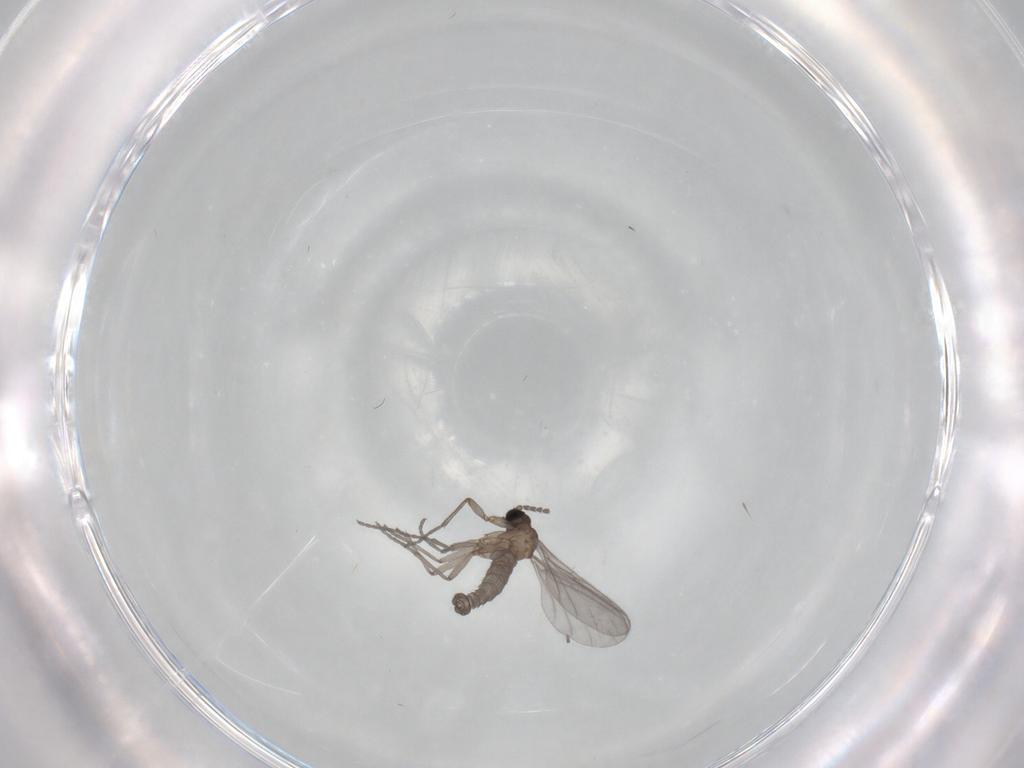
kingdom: Animalia
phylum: Arthropoda
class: Insecta
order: Diptera
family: Sciaridae
